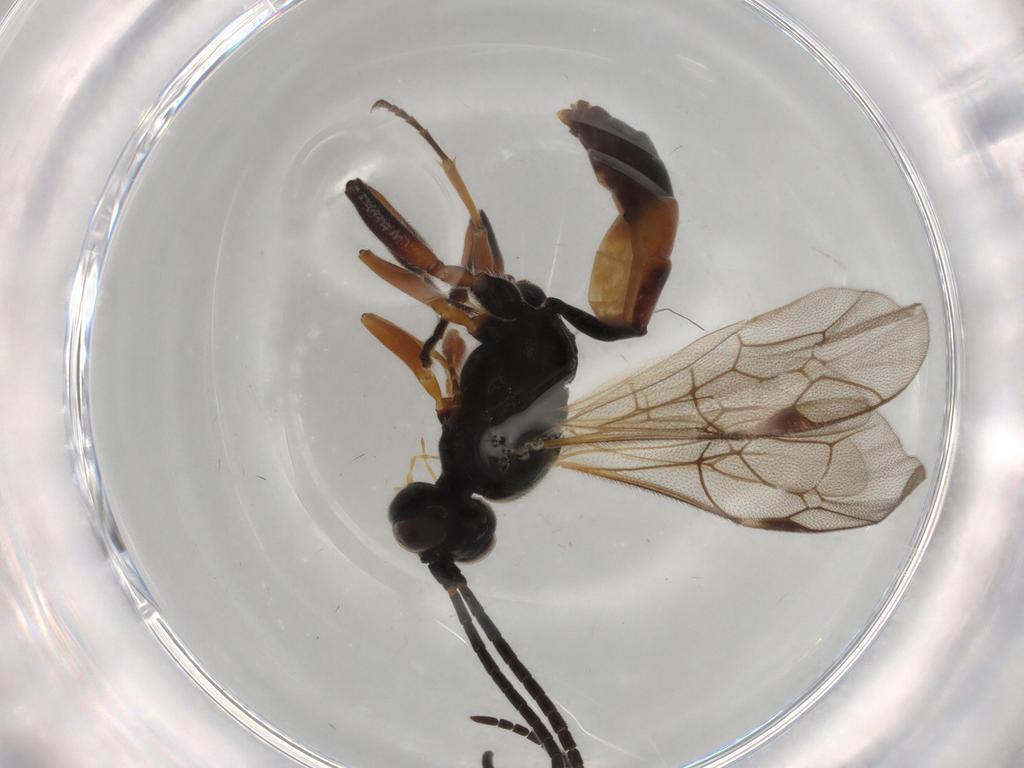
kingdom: Animalia
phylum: Arthropoda
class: Insecta
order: Hymenoptera
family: Ichneumonidae
